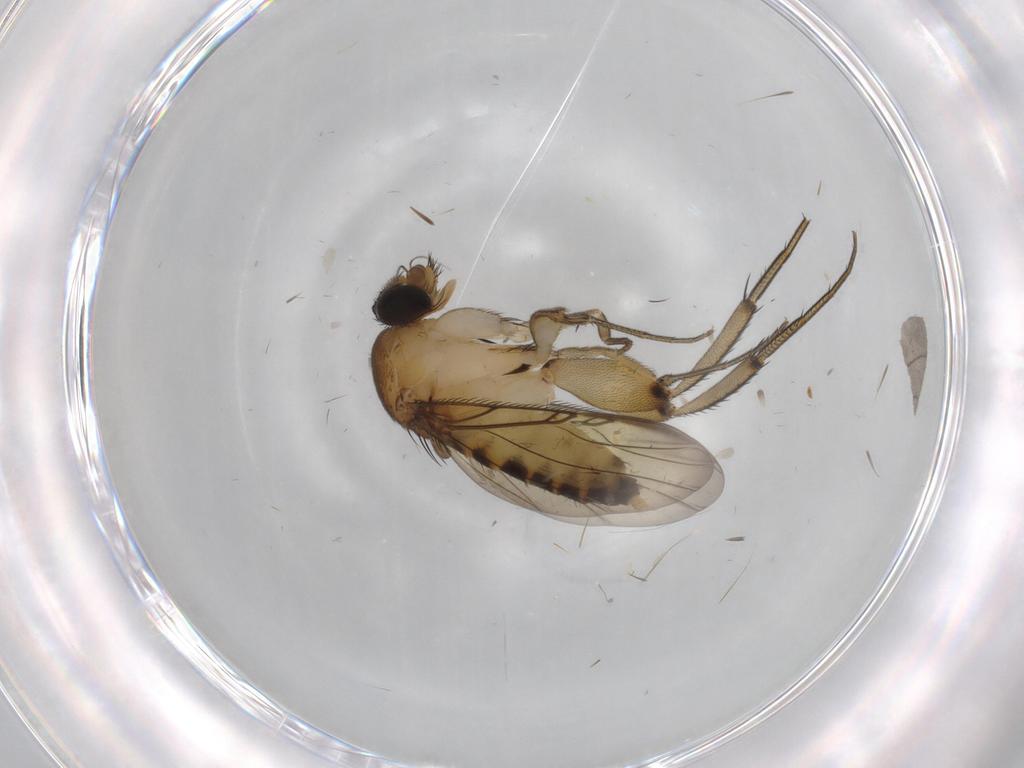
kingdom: Animalia
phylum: Arthropoda
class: Insecta
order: Diptera
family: Phoridae
